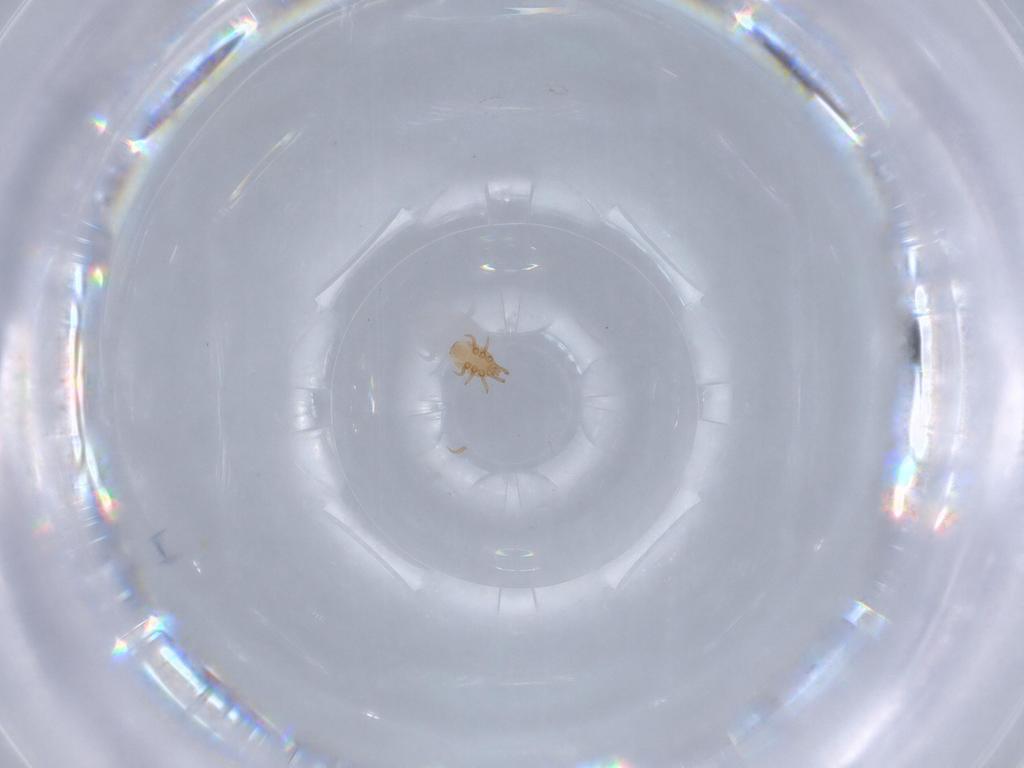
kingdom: Animalia
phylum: Arthropoda
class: Arachnida
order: Mesostigmata
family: Dinychidae
